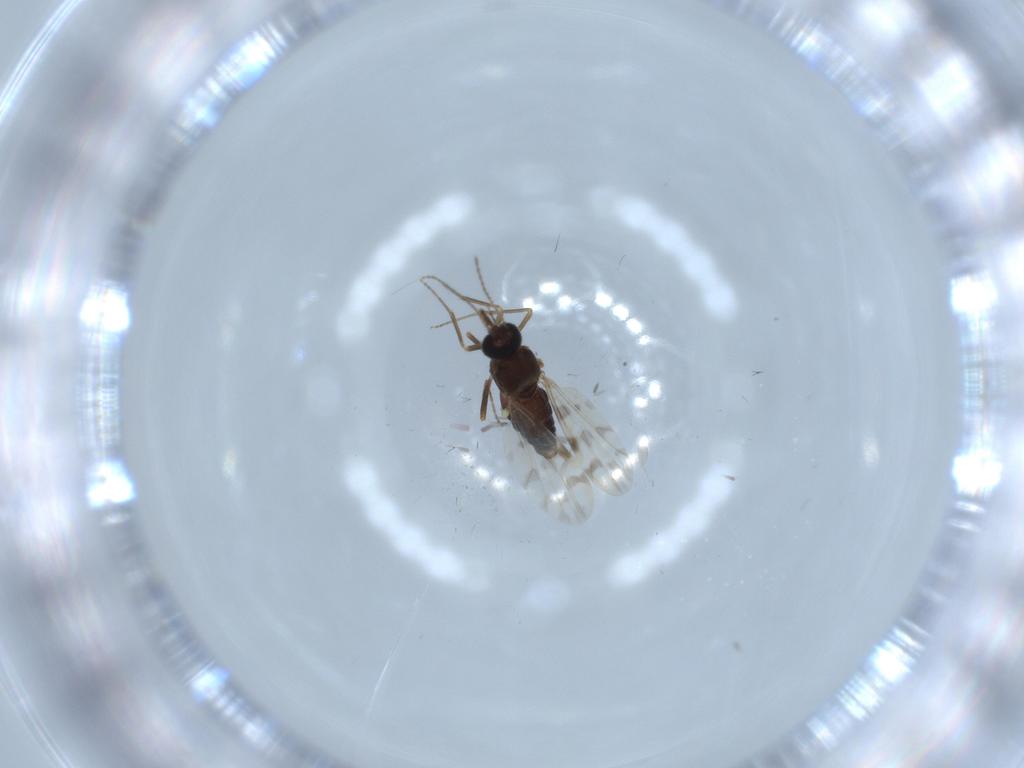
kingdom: Animalia
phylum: Arthropoda
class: Insecta
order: Diptera
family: Ceratopogonidae
